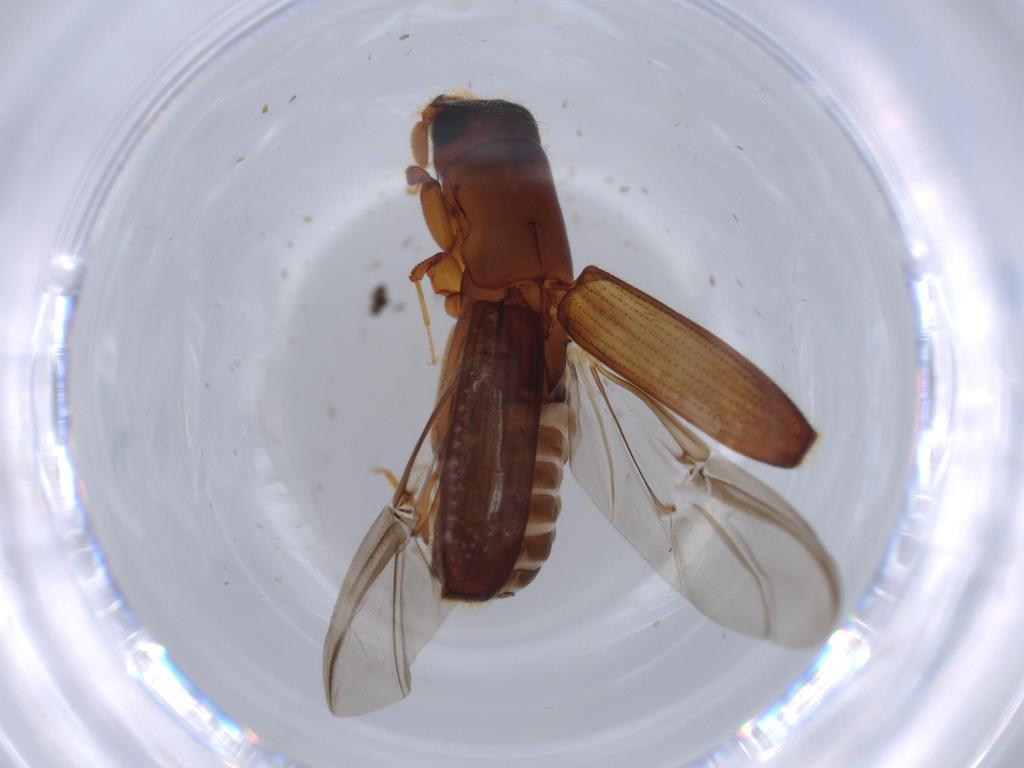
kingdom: Animalia
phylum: Arthropoda
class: Insecta
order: Coleoptera
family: Curculionidae
